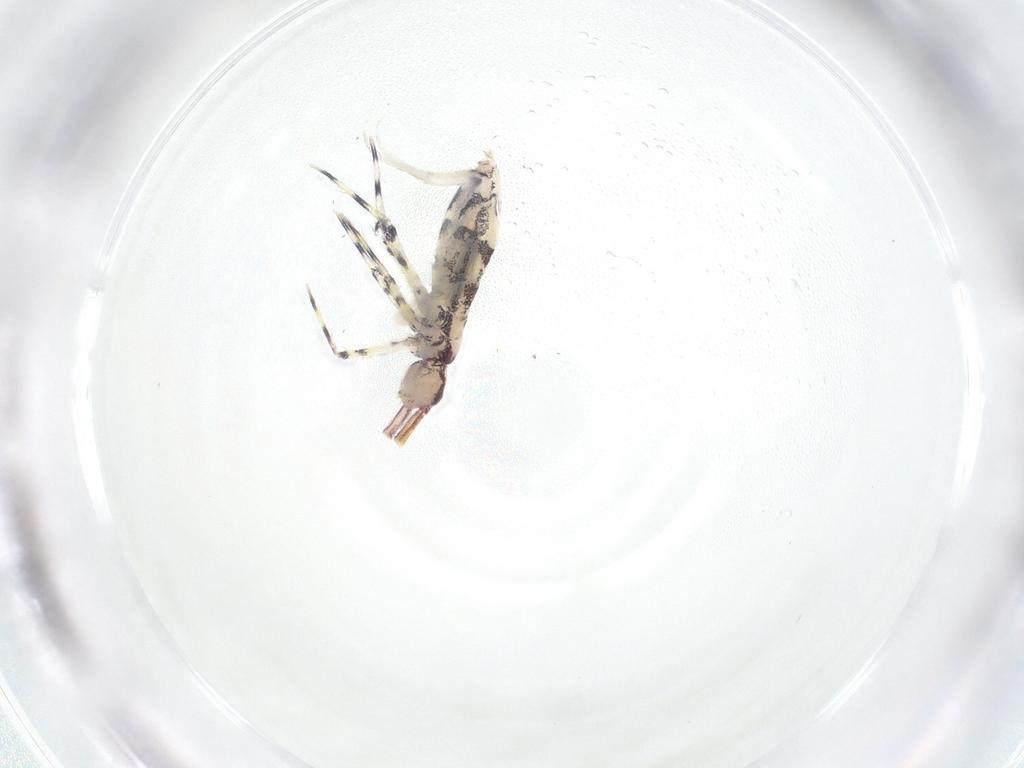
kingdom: Animalia
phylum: Arthropoda
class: Collembola
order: Entomobryomorpha
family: Entomobryidae
